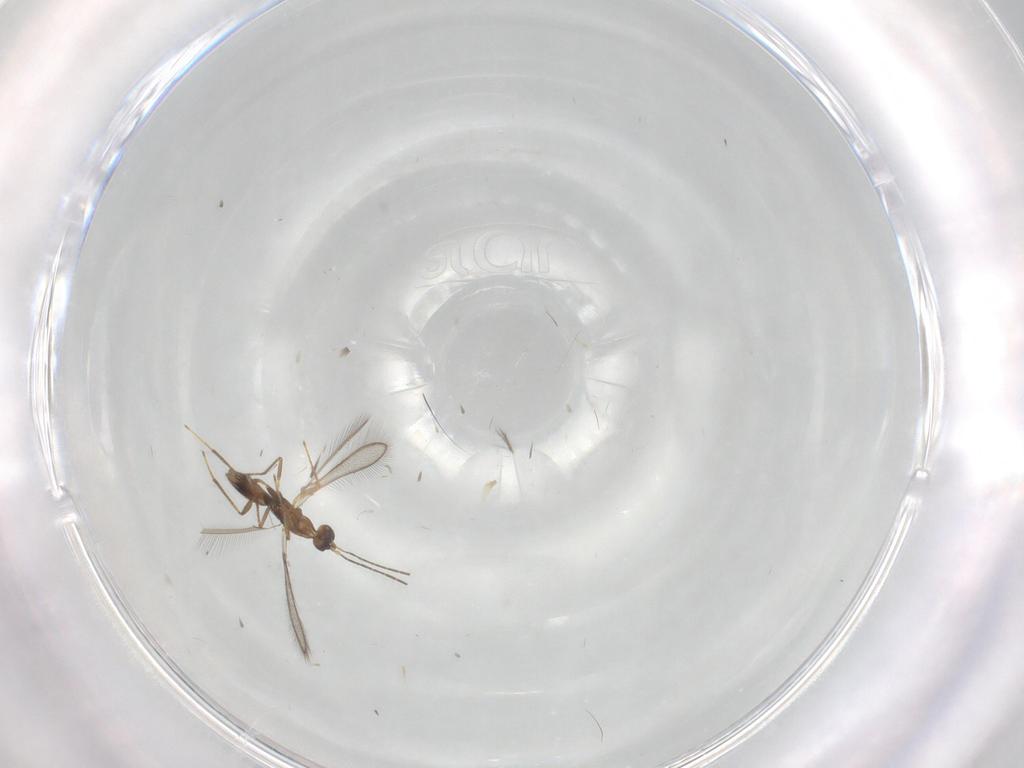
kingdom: Animalia
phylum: Arthropoda
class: Insecta
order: Hymenoptera
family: Mymaridae
